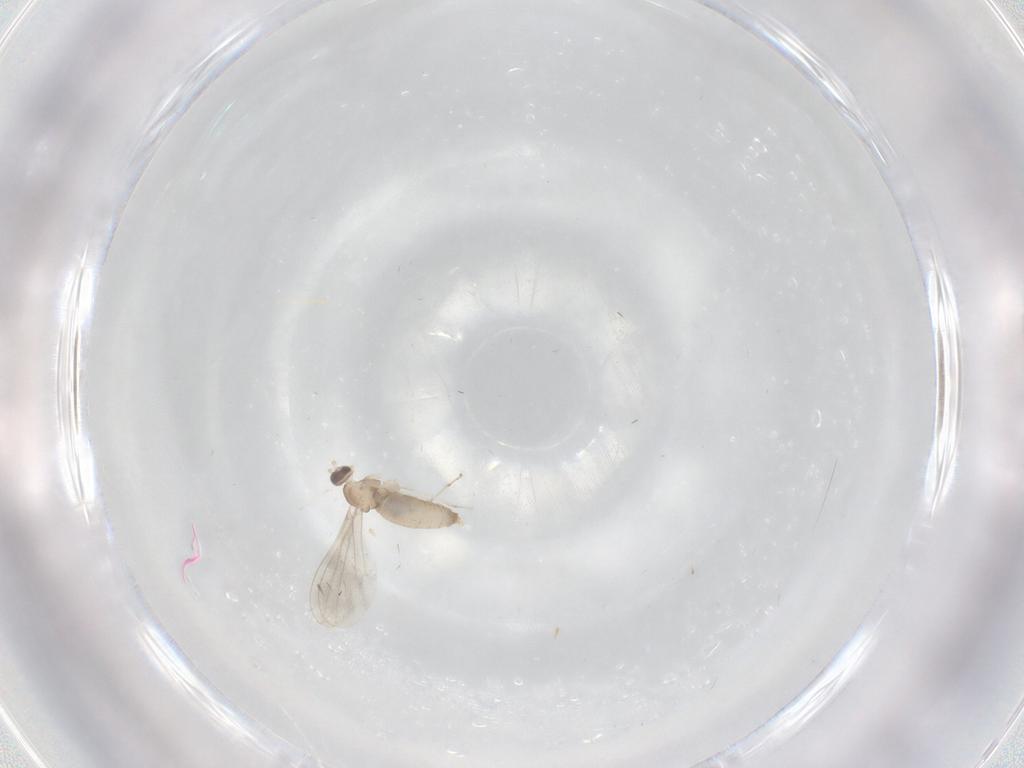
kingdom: Animalia
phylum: Arthropoda
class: Insecta
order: Diptera
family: Cecidomyiidae
